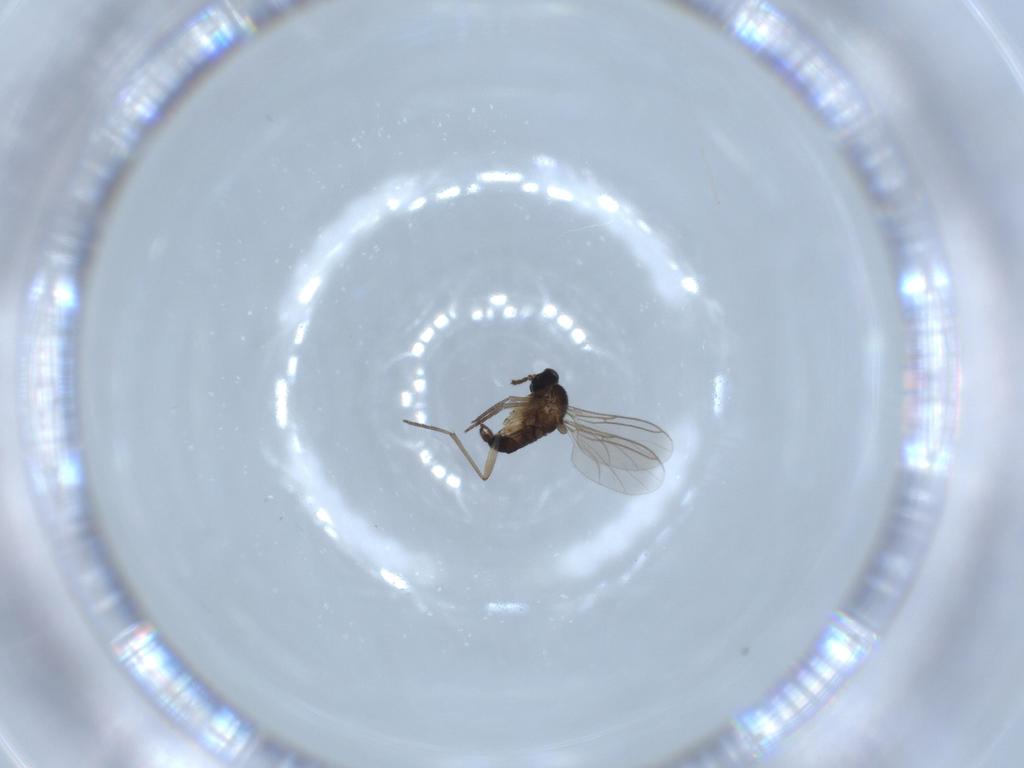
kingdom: Animalia
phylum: Arthropoda
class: Insecta
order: Diptera
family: Sciaridae
